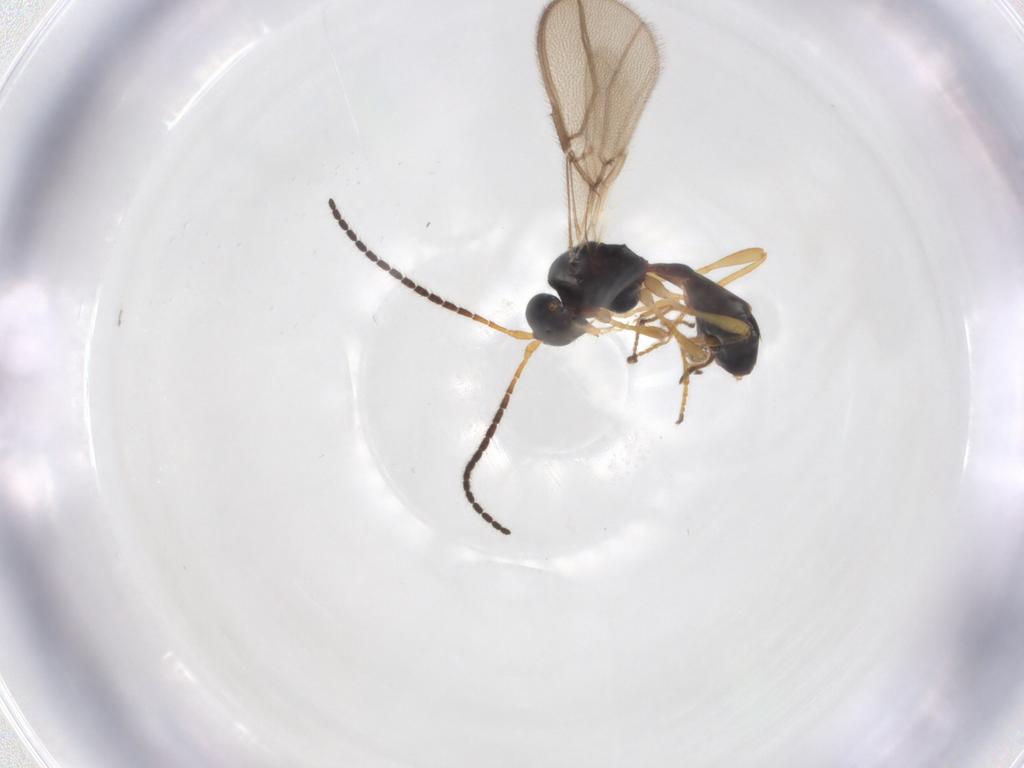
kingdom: Animalia
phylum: Arthropoda
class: Insecta
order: Hymenoptera
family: Braconidae
